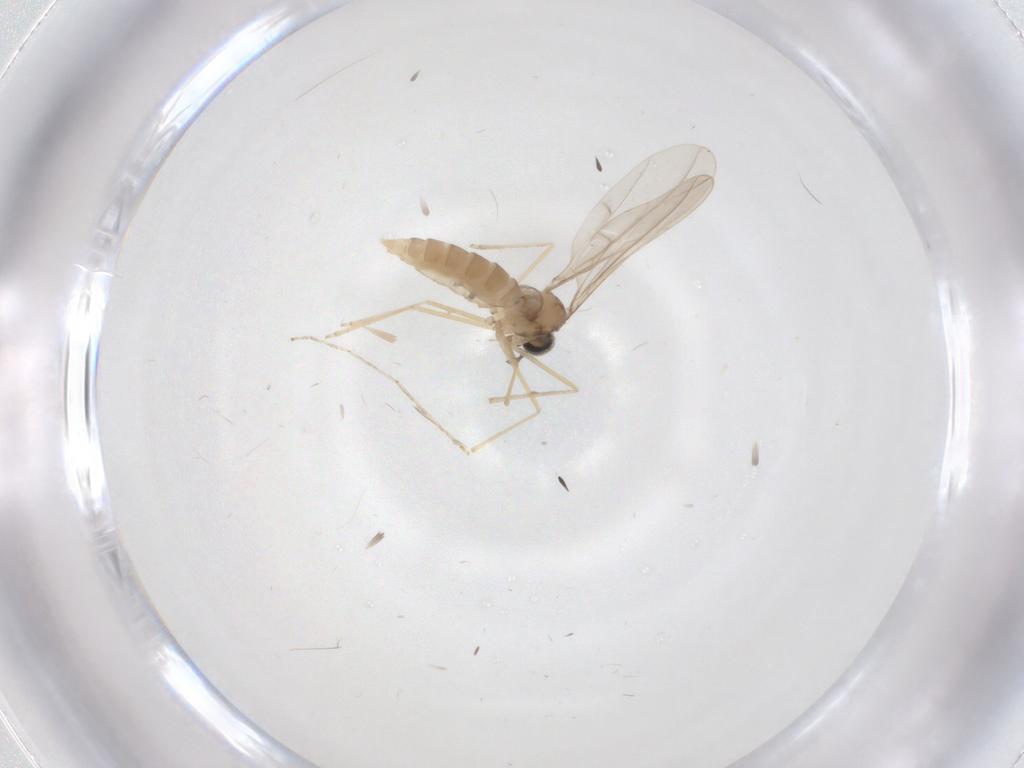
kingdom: Animalia
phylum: Arthropoda
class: Insecta
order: Diptera
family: Cecidomyiidae
